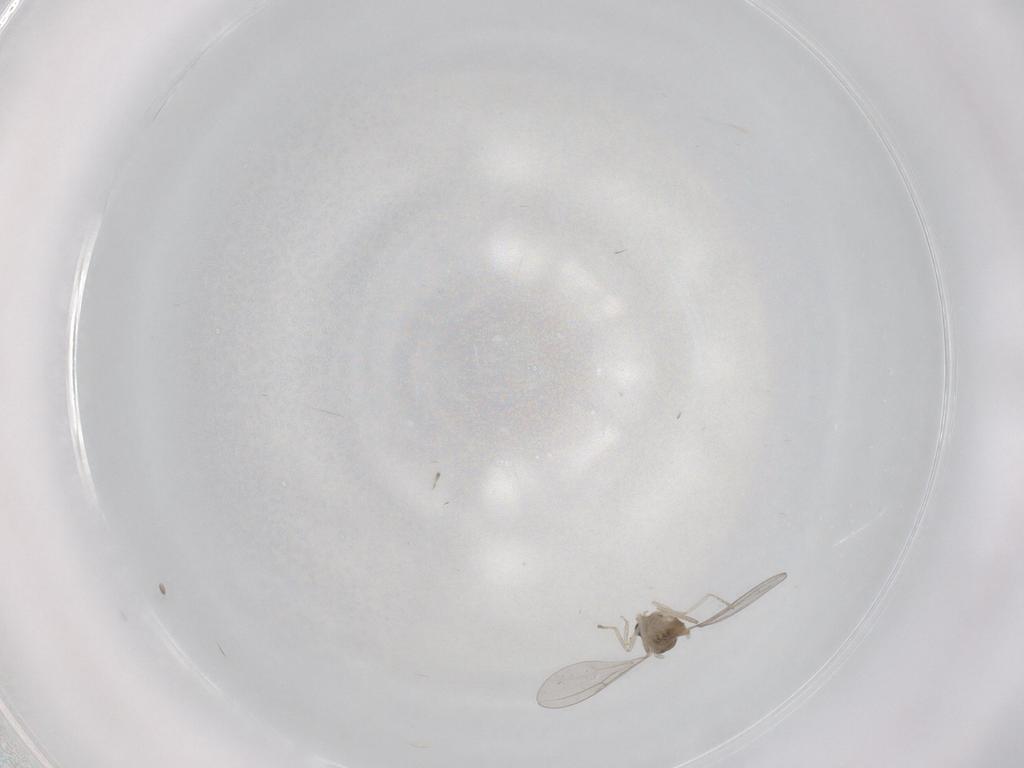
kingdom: Animalia
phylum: Arthropoda
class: Insecta
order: Diptera
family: Cecidomyiidae
